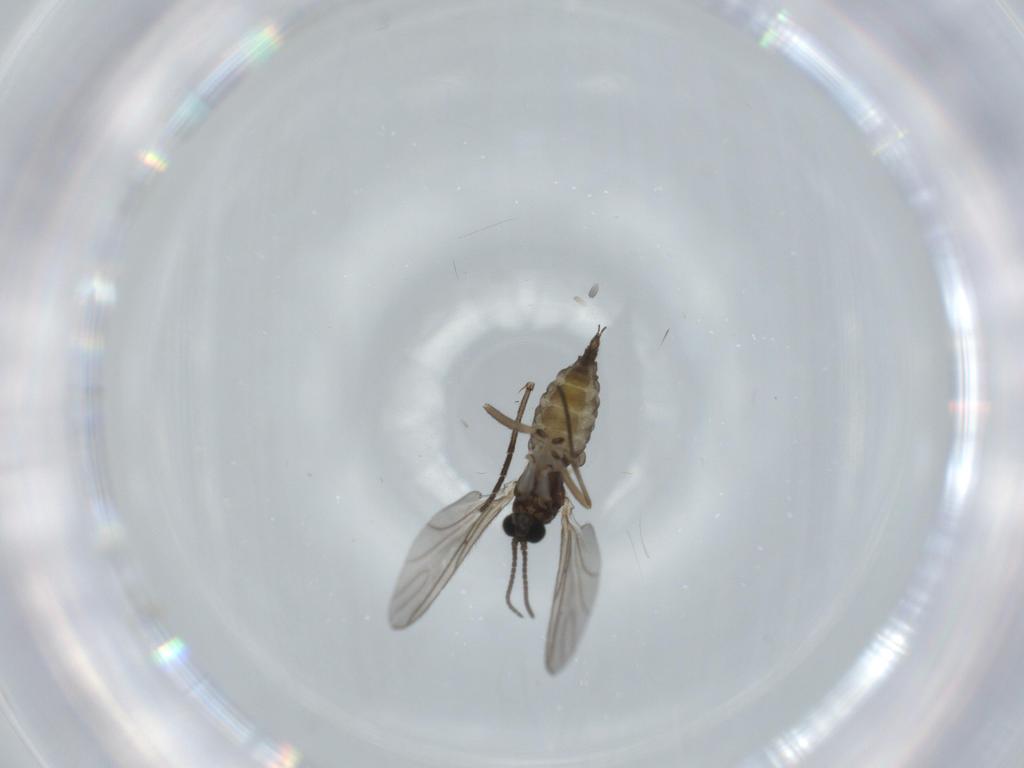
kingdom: Animalia
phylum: Arthropoda
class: Insecta
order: Diptera
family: Sciaridae
